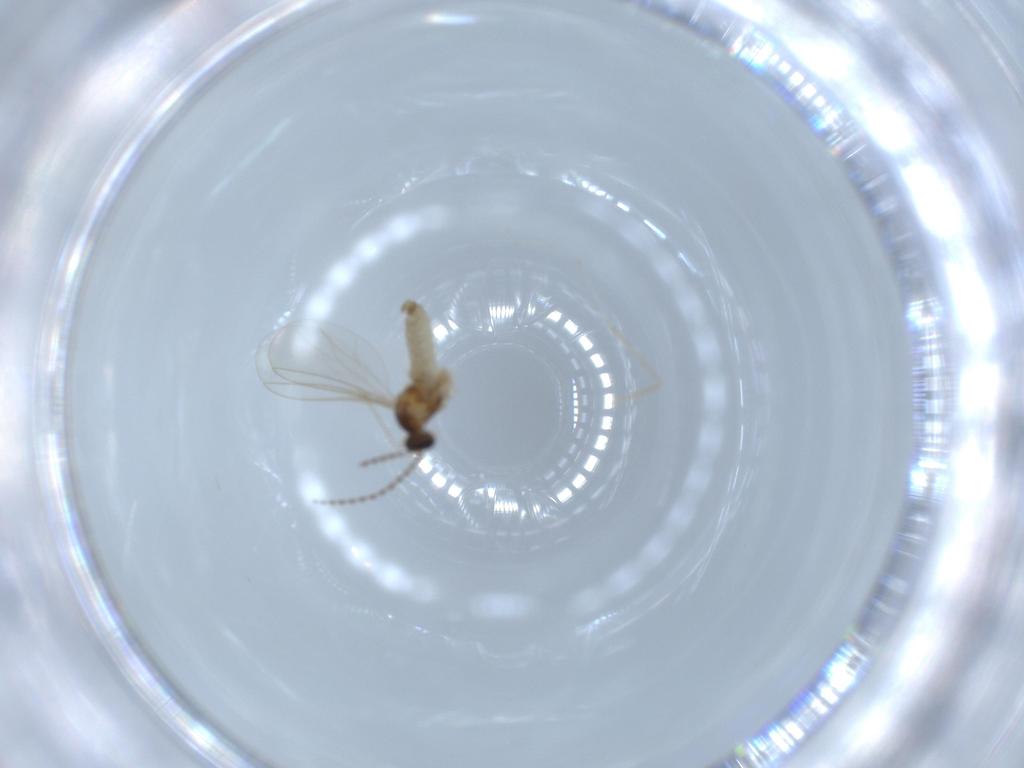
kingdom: Animalia
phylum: Arthropoda
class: Insecta
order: Diptera
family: Cecidomyiidae
